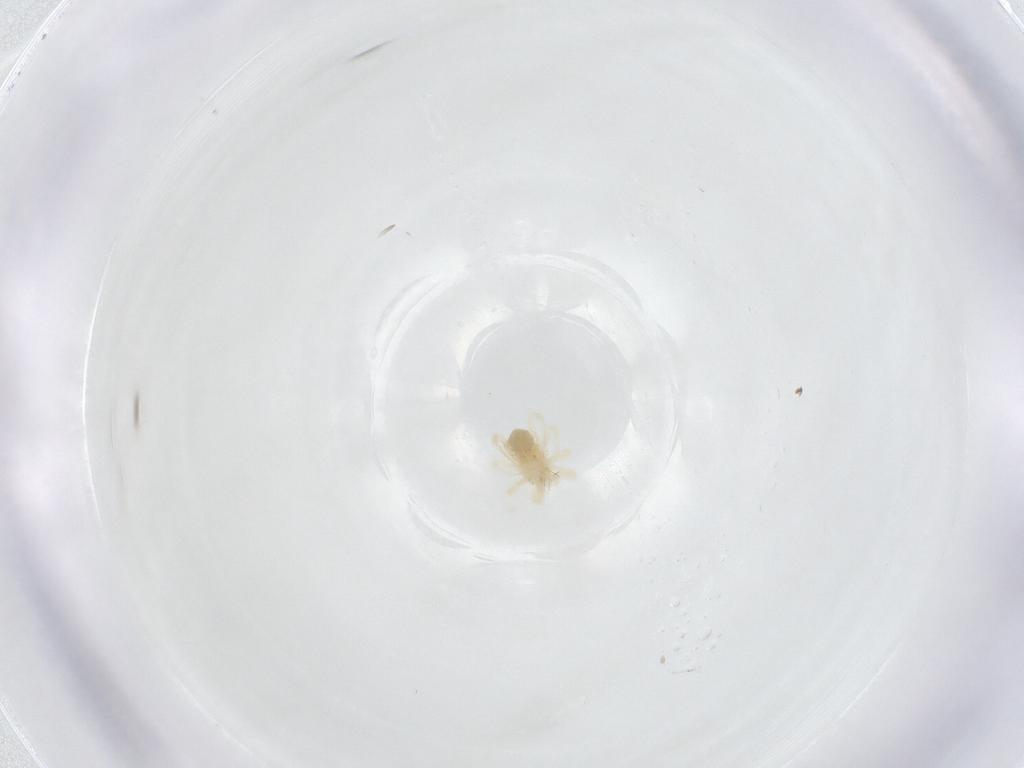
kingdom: Animalia
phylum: Arthropoda
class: Arachnida
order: Trombidiformes
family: Anystidae
